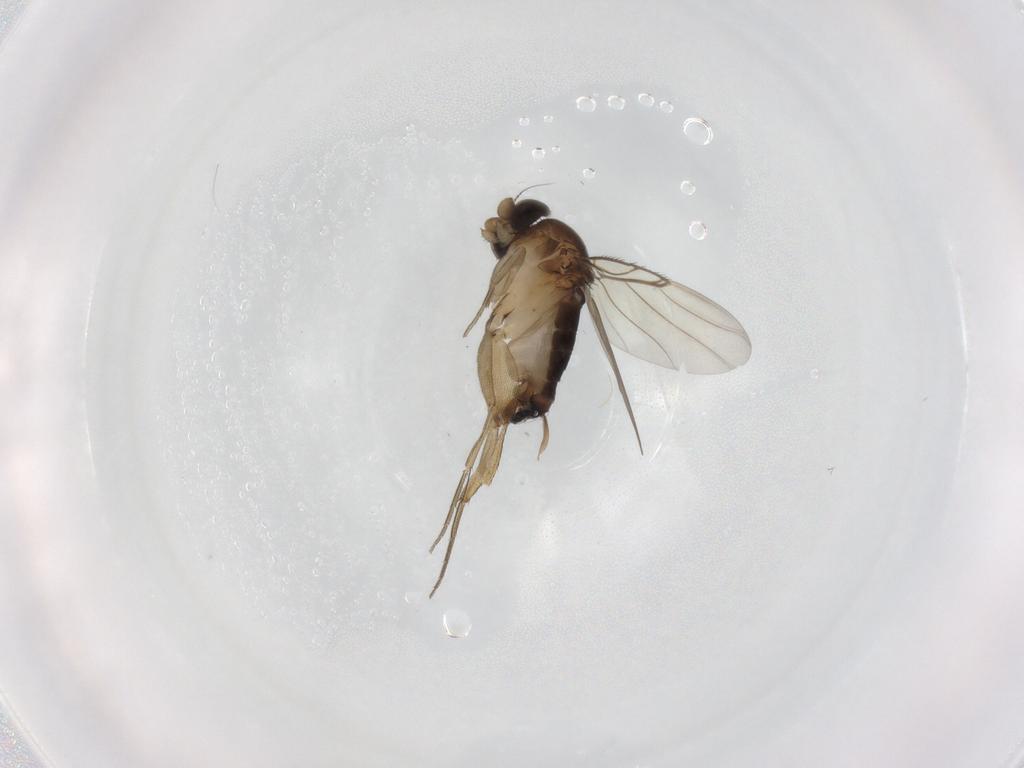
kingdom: Animalia
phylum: Arthropoda
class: Insecta
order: Diptera
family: Phoridae
